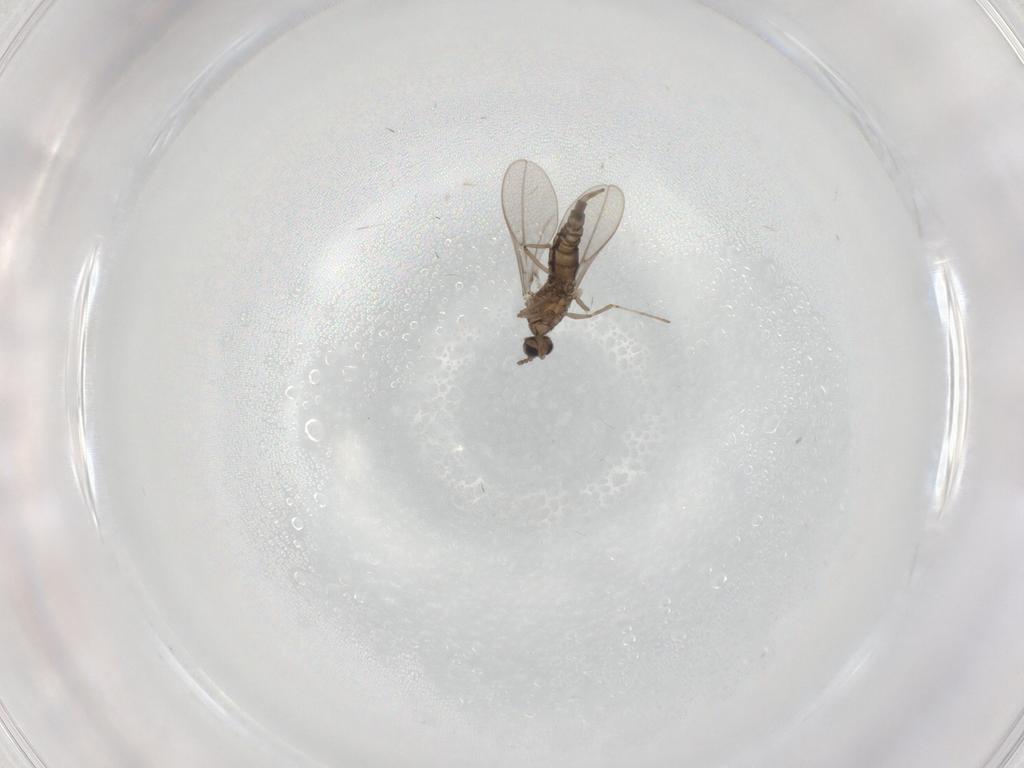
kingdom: Animalia
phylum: Arthropoda
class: Insecta
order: Diptera
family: Cecidomyiidae
